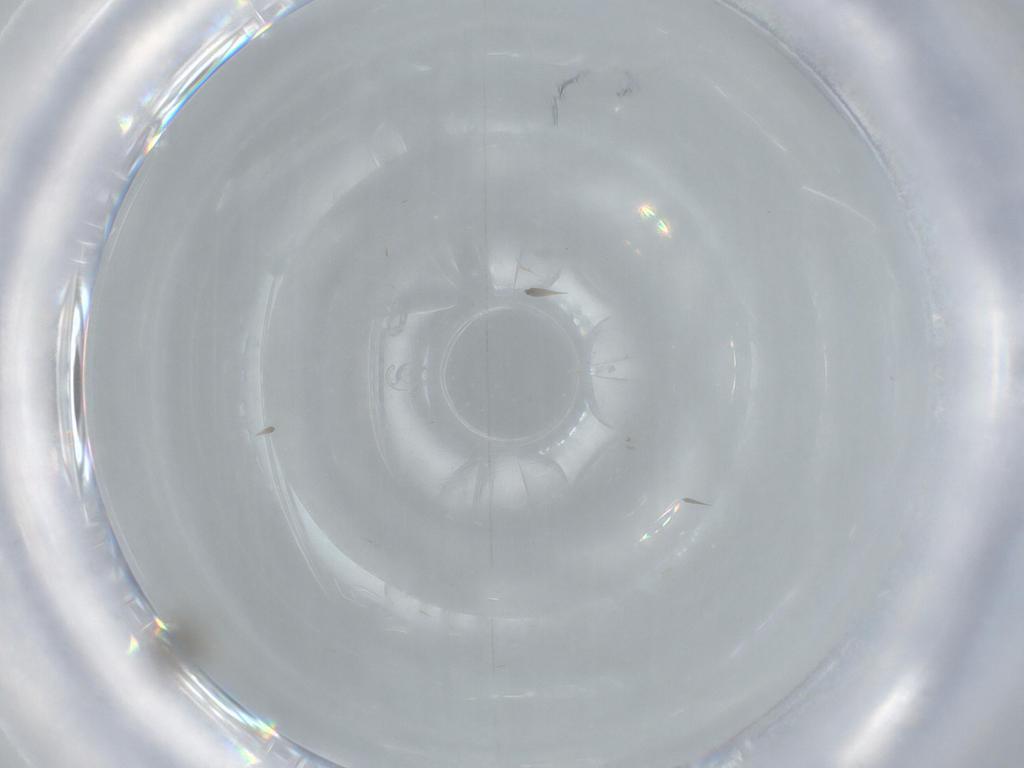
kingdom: Animalia
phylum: Arthropoda
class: Insecta
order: Diptera
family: Cecidomyiidae
